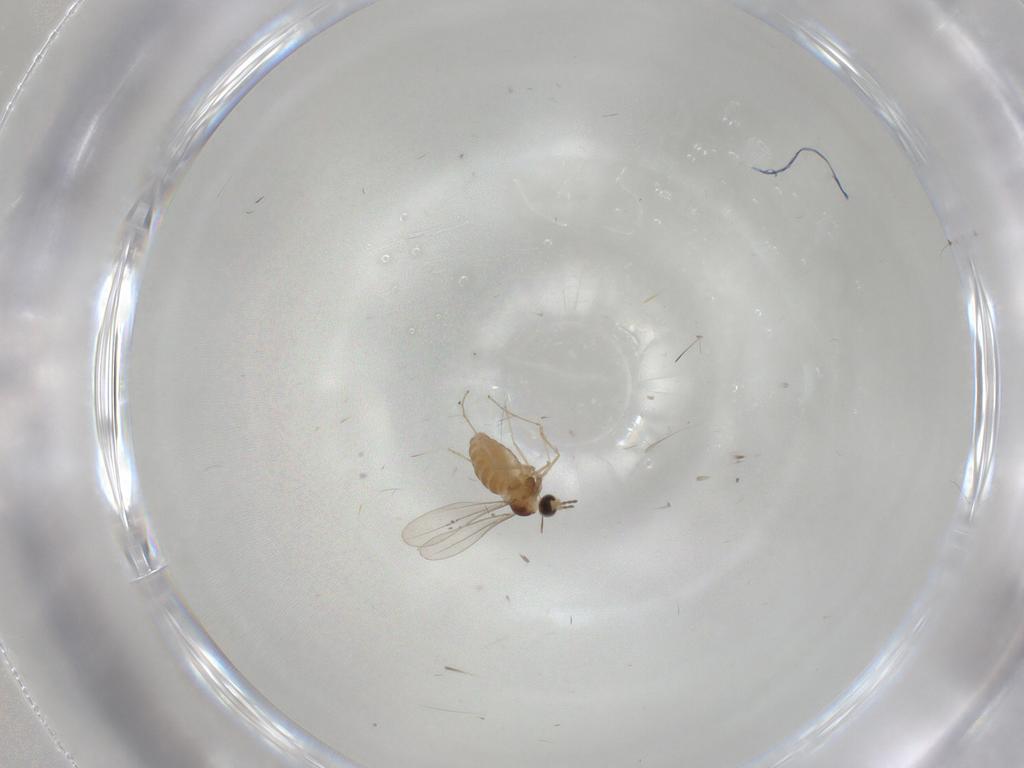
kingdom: Animalia
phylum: Arthropoda
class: Insecta
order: Diptera
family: Cecidomyiidae
